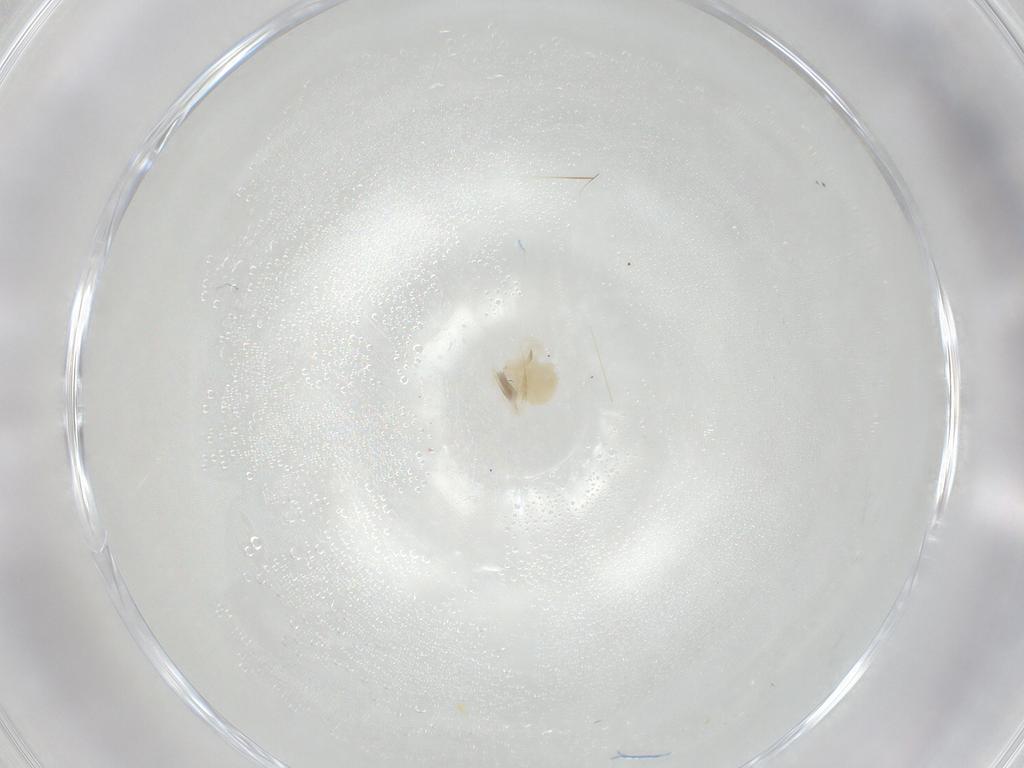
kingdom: Animalia
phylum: Arthropoda
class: Arachnida
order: Trombidiformes
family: Anystidae
